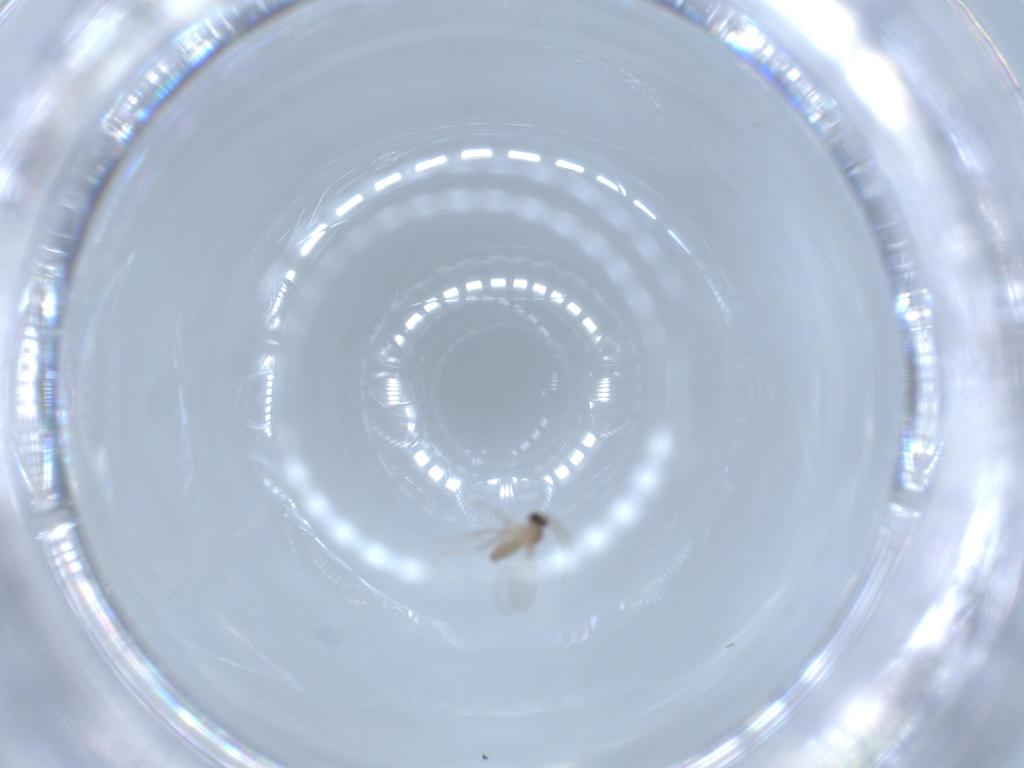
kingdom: Animalia
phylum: Arthropoda
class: Insecta
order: Diptera
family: Cecidomyiidae
